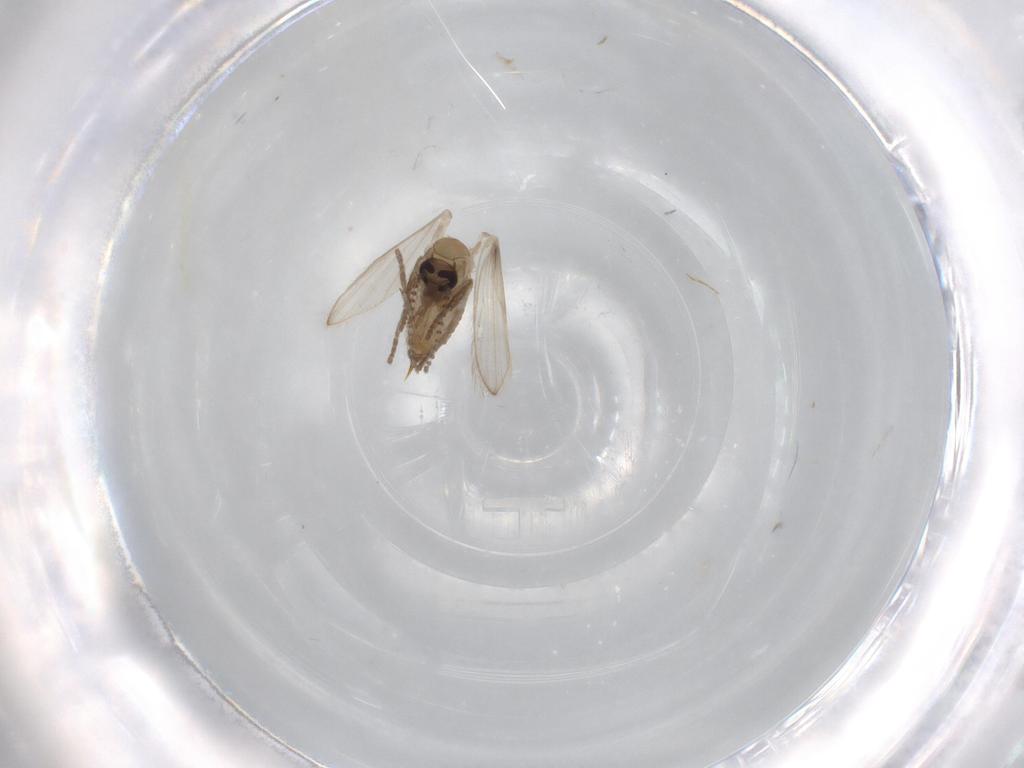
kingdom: Animalia
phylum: Arthropoda
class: Insecta
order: Diptera
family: Psychodidae
